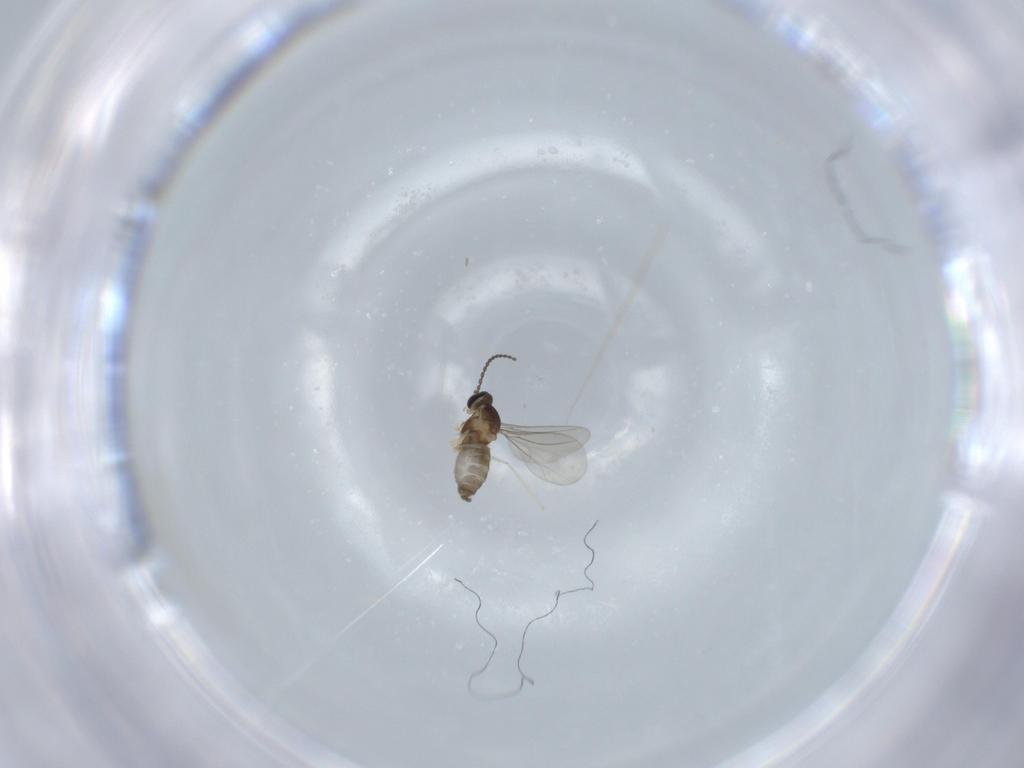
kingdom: Animalia
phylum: Arthropoda
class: Insecta
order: Diptera
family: Cecidomyiidae
